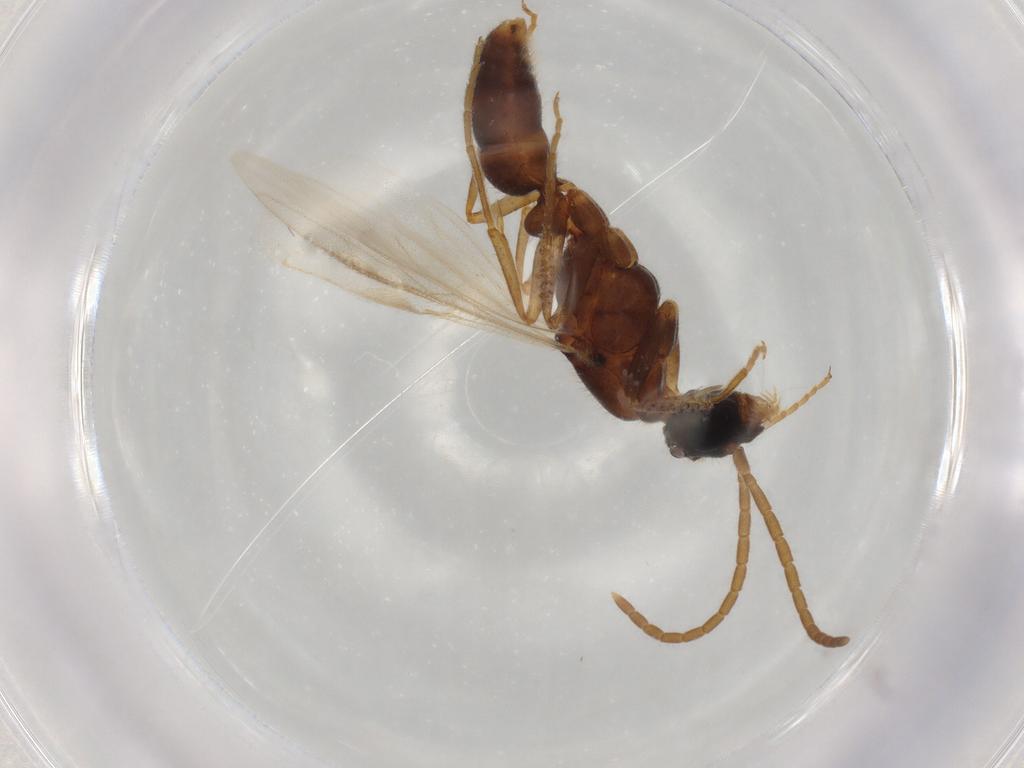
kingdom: Animalia
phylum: Arthropoda
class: Insecta
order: Hymenoptera
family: Formicidae
